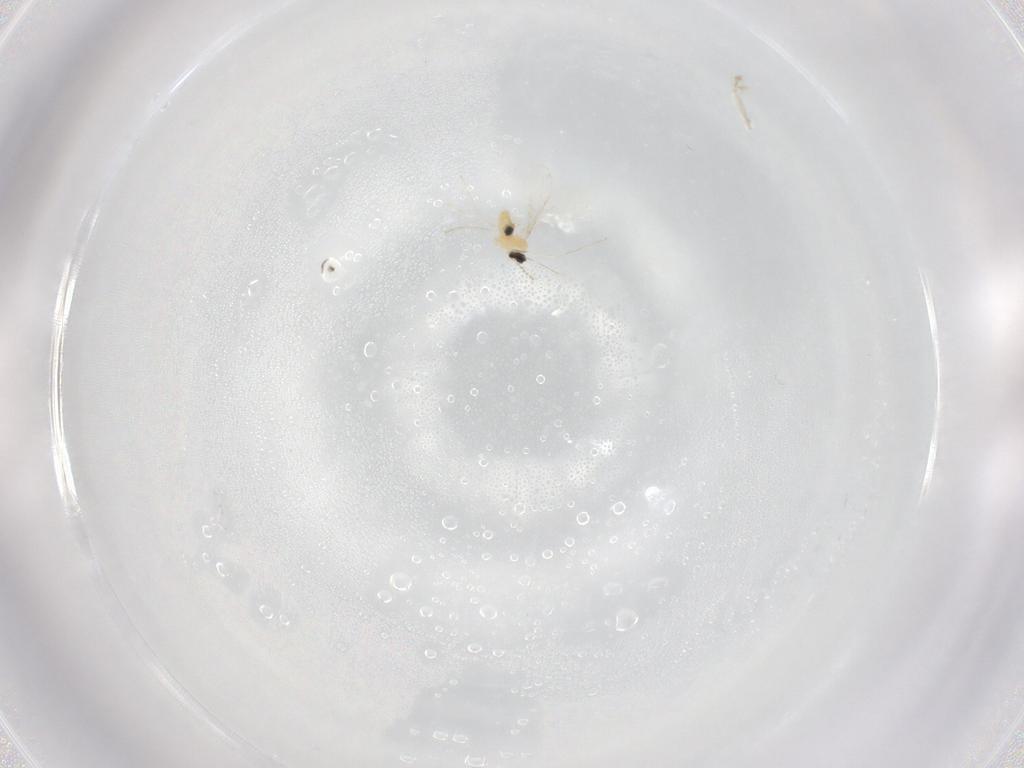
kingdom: Animalia
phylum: Arthropoda
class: Insecta
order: Diptera
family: Cecidomyiidae
